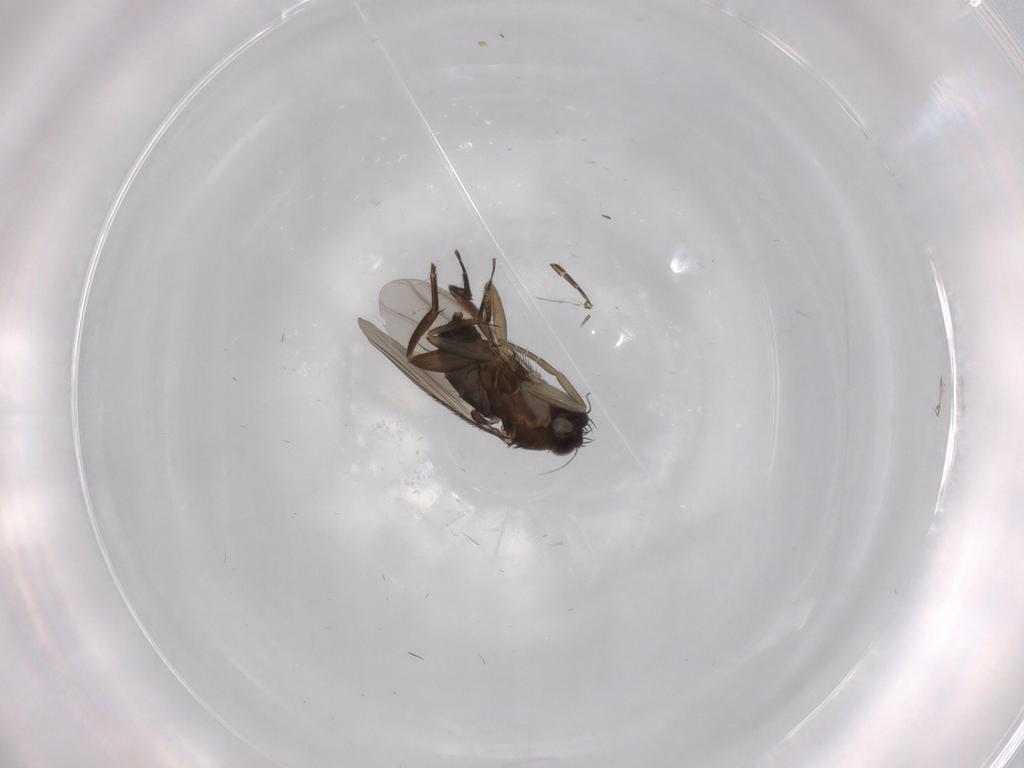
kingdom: Animalia
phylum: Arthropoda
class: Insecta
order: Diptera
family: Phoridae
